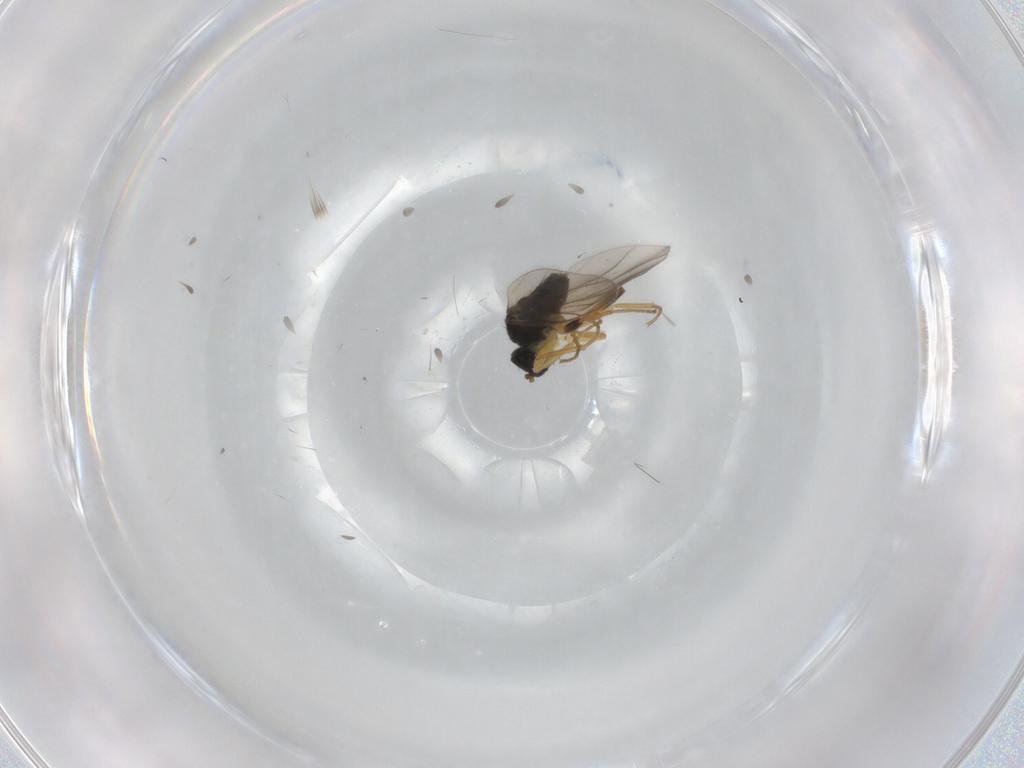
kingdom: Animalia
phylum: Arthropoda
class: Insecta
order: Diptera
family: Hybotidae
